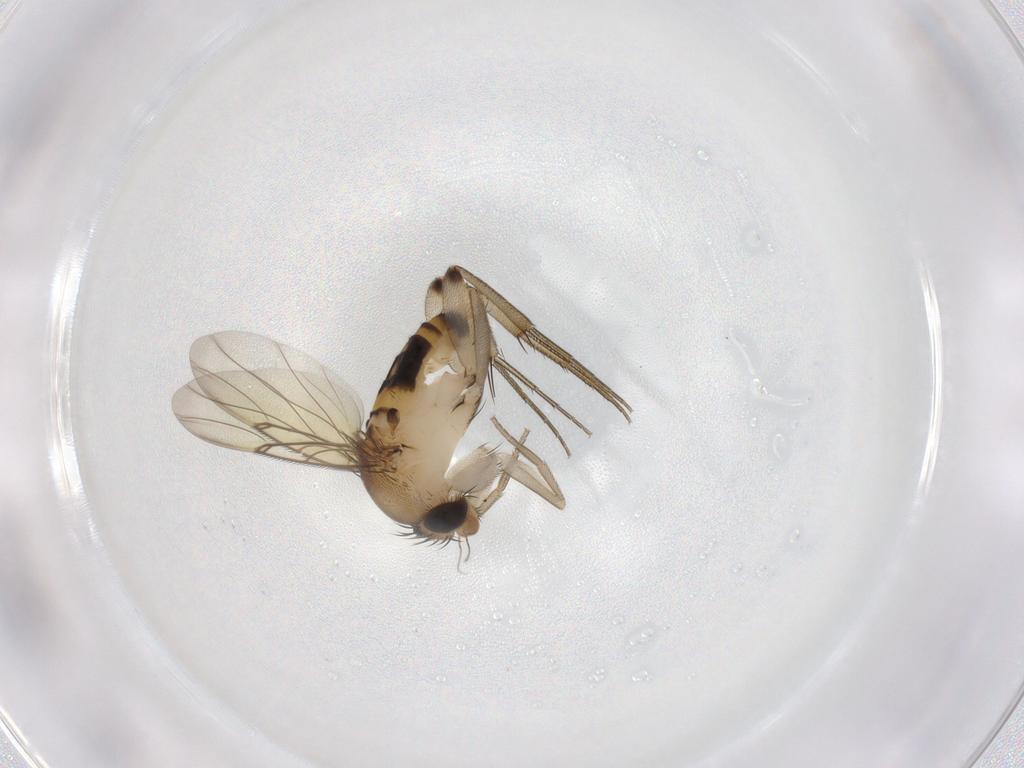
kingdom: Animalia
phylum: Arthropoda
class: Insecta
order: Diptera
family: Phoridae
